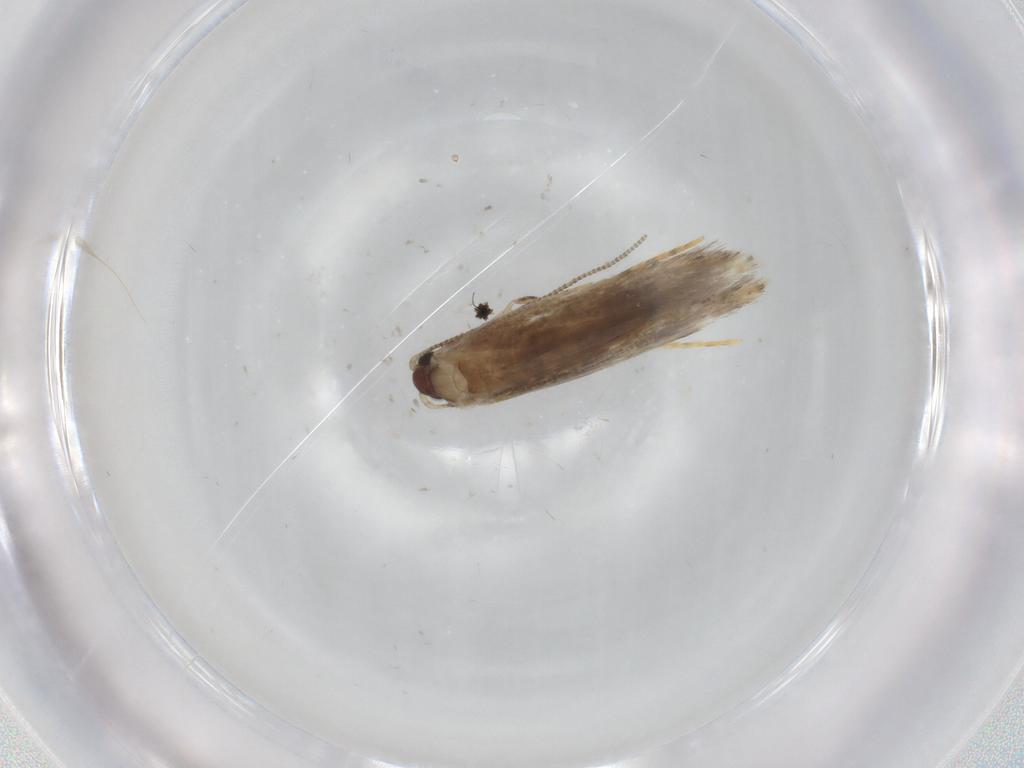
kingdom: Animalia
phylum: Arthropoda
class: Insecta
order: Lepidoptera
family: Tineidae
